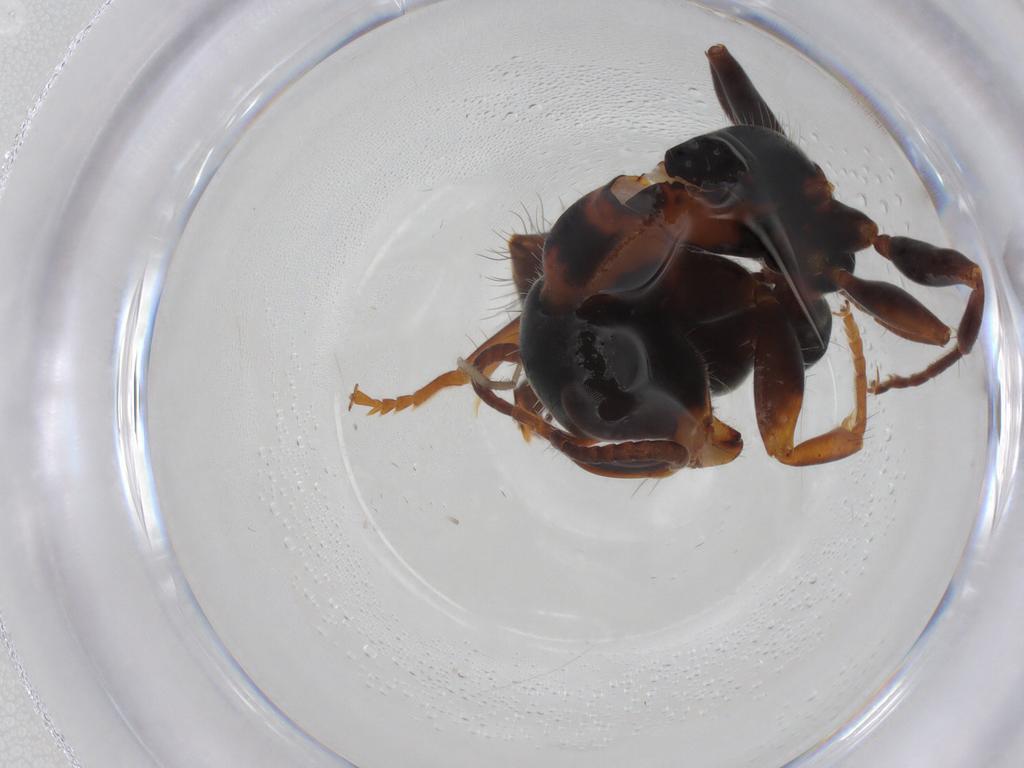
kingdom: Animalia
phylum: Arthropoda
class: Insecta
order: Hymenoptera
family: Formicidae
